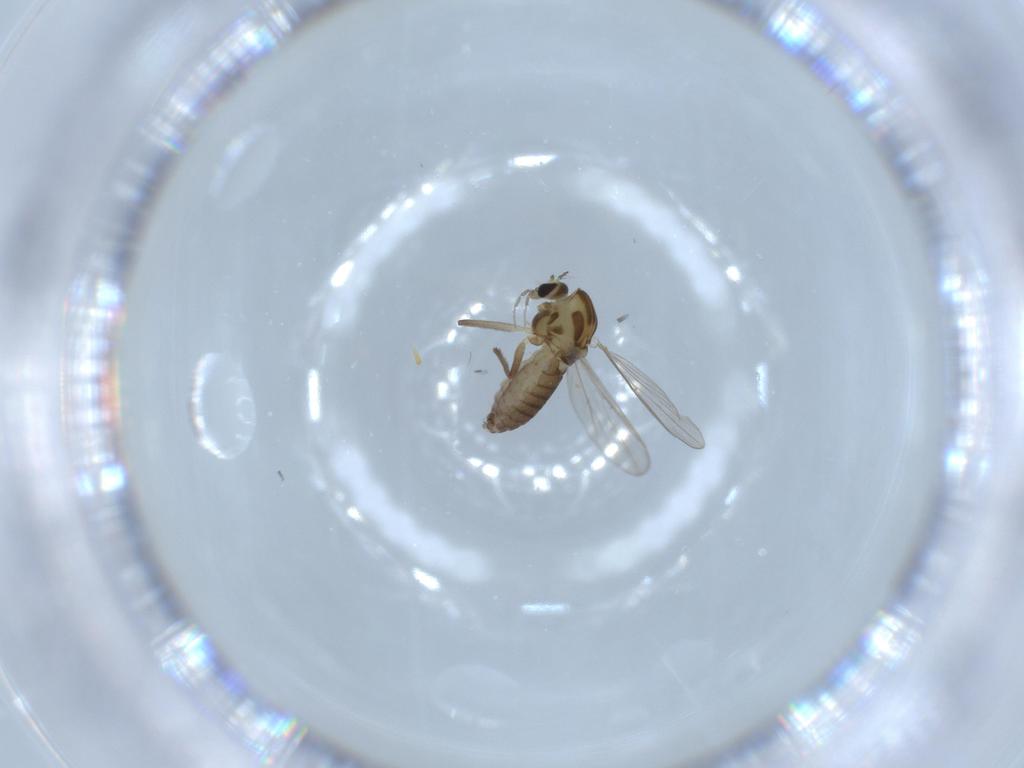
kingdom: Animalia
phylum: Arthropoda
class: Insecta
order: Diptera
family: Chironomidae
